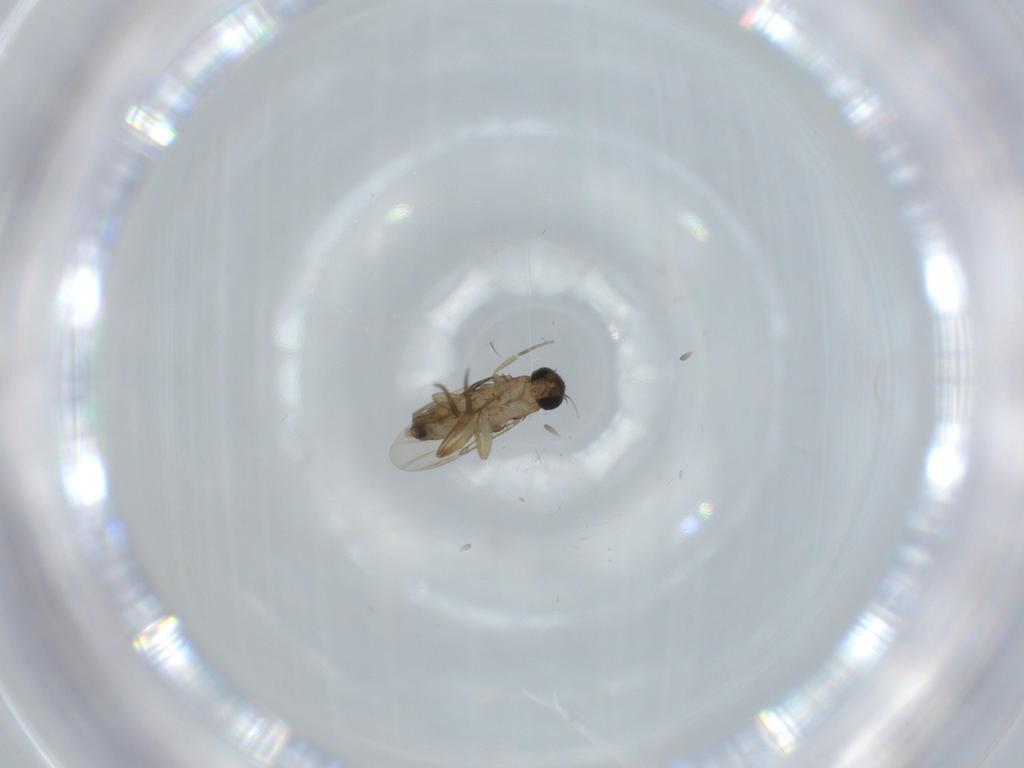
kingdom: Animalia
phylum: Arthropoda
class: Insecta
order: Diptera
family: Phoridae
